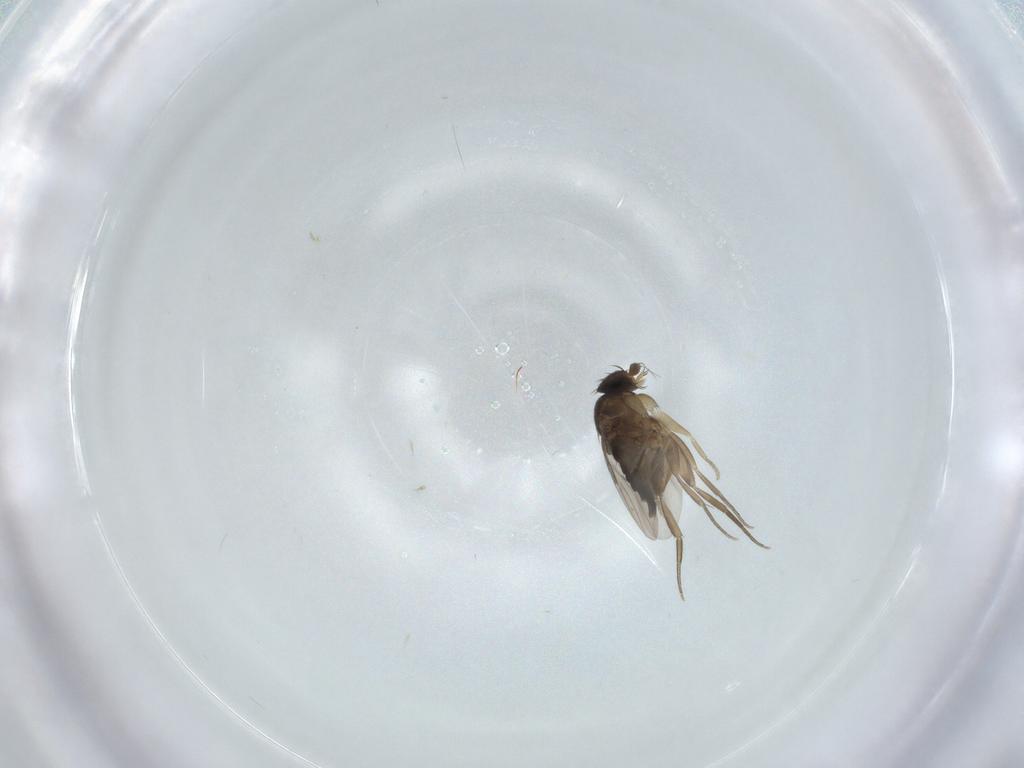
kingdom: Animalia
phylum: Arthropoda
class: Insecta
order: Diptera
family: Phoridae
